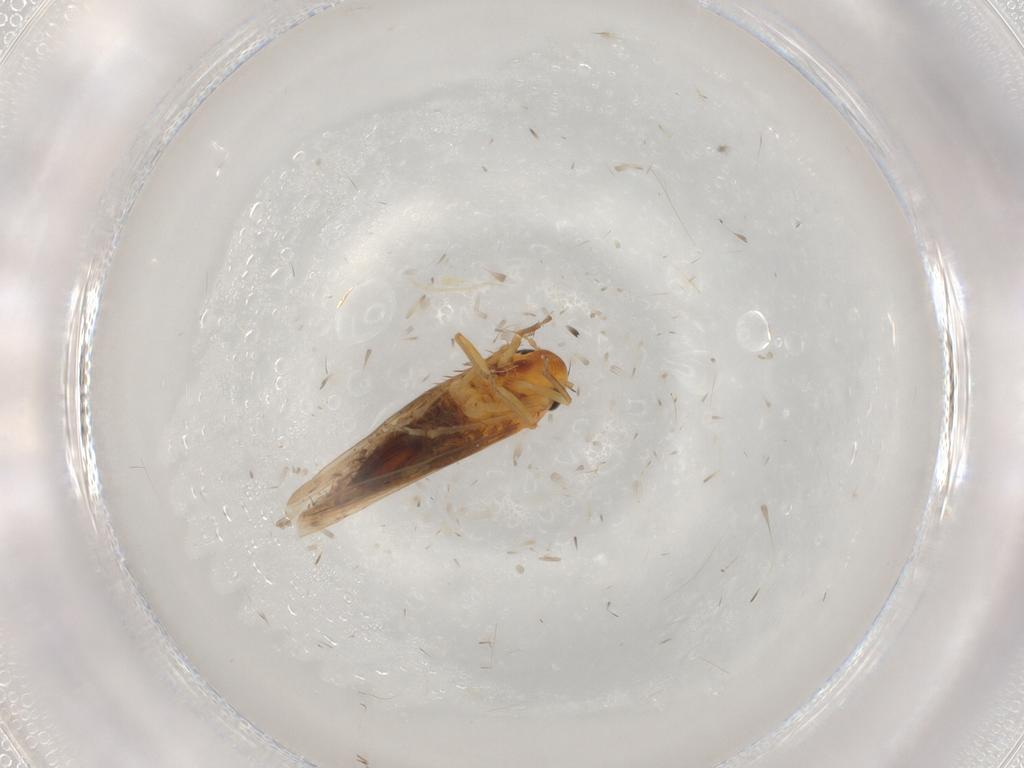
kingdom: Animalia
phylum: Arthropoda
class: Insecta
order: Hemiptera
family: Cicadellidae
